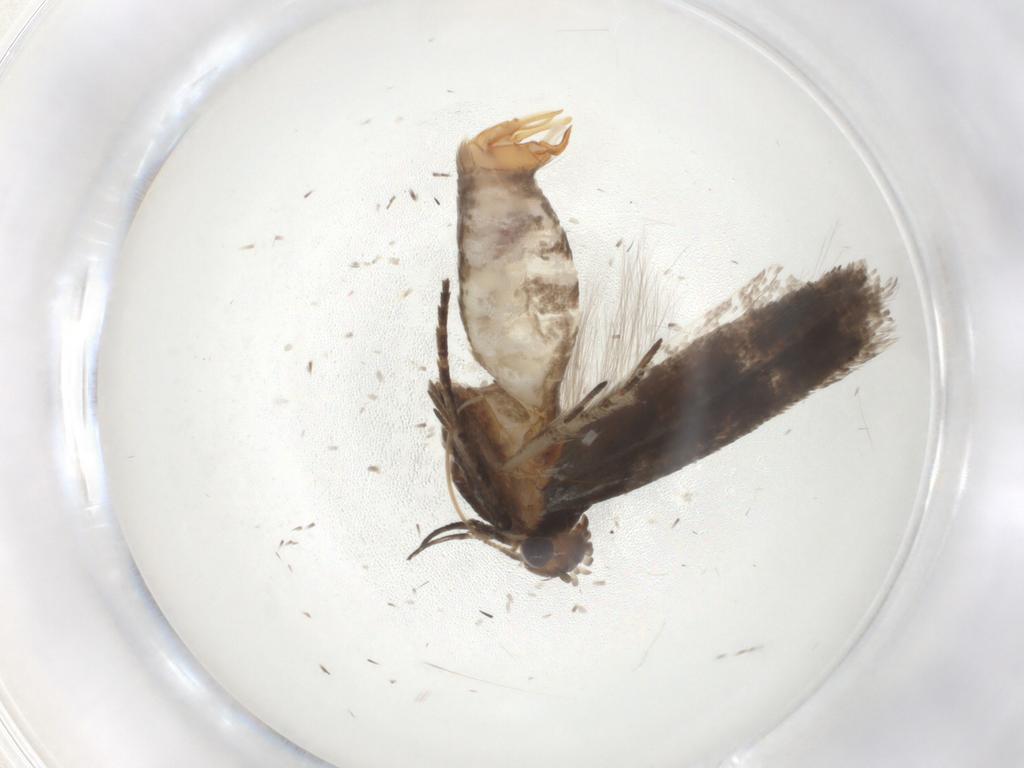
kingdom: Animalia
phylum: Arthropoda
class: Insecta
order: Lepidoptera
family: Gelechiidae
